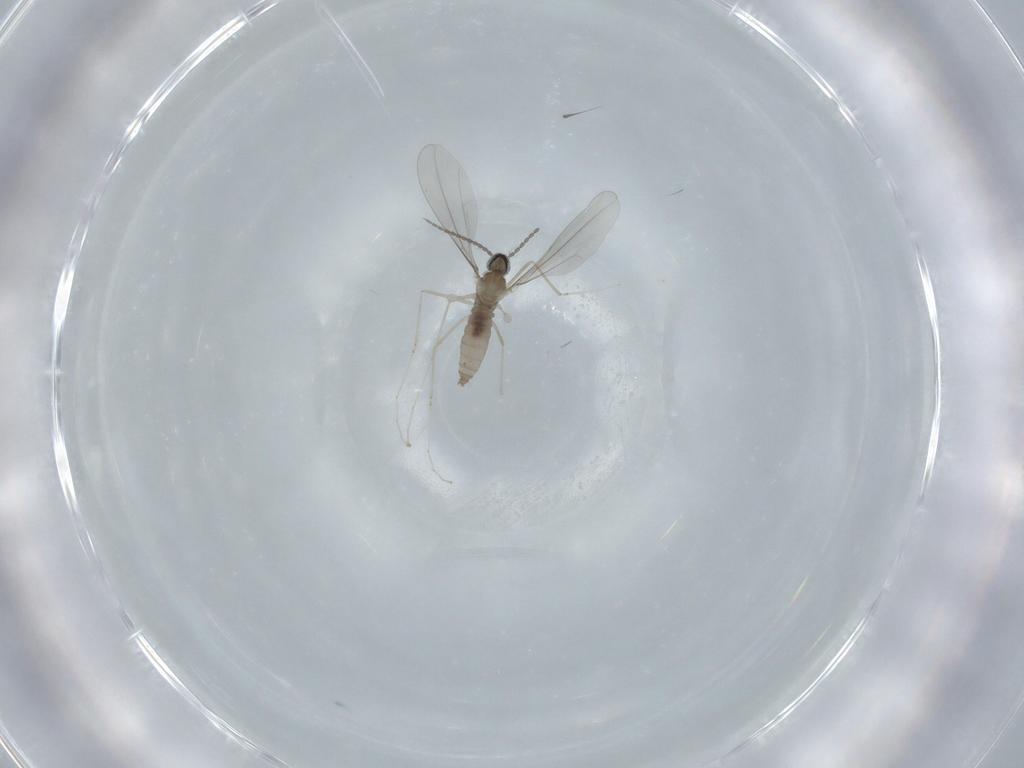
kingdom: Animalia
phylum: Arthropoda
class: Insecta
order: Diptera
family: Cecidomyiidae
